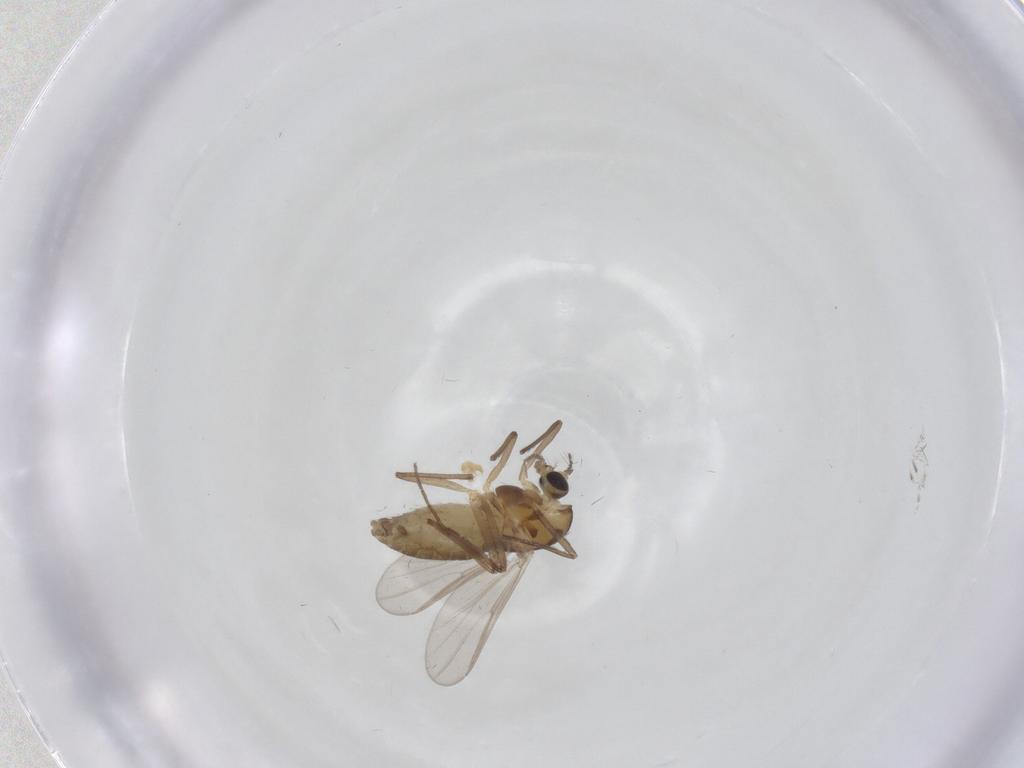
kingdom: Animalia
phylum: Arthropoda
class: Insecta
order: Diptera
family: Chironomidae
